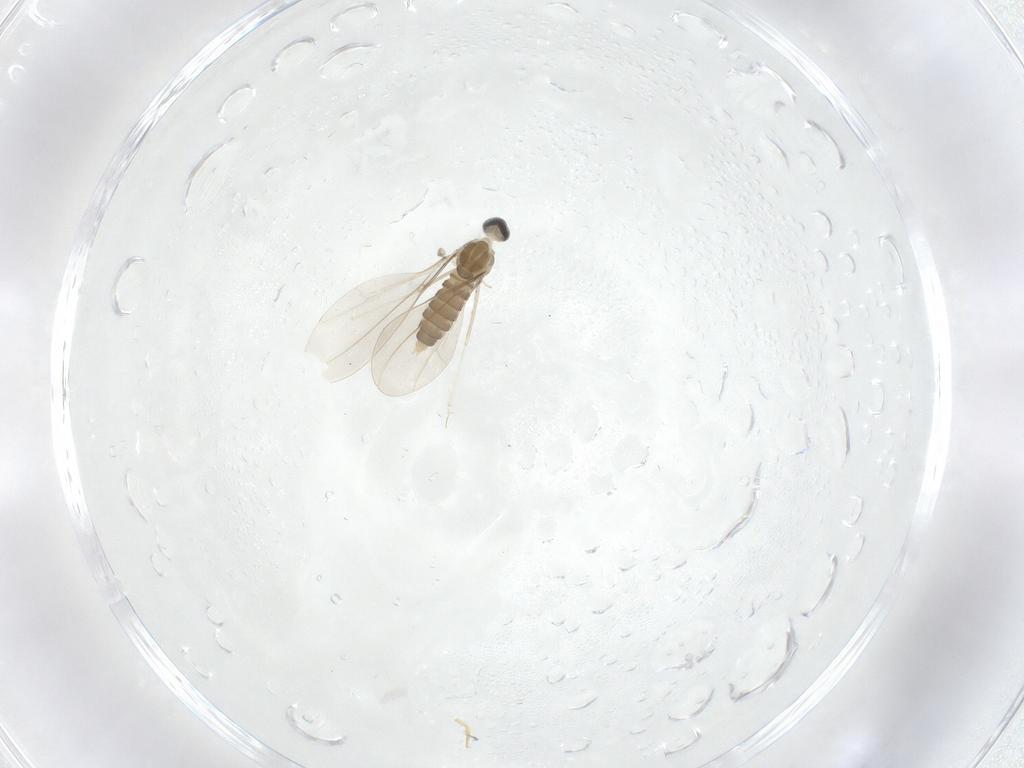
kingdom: Animalia
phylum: Arthropoda
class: Insecta
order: Diptera
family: Cecidomyiidae
